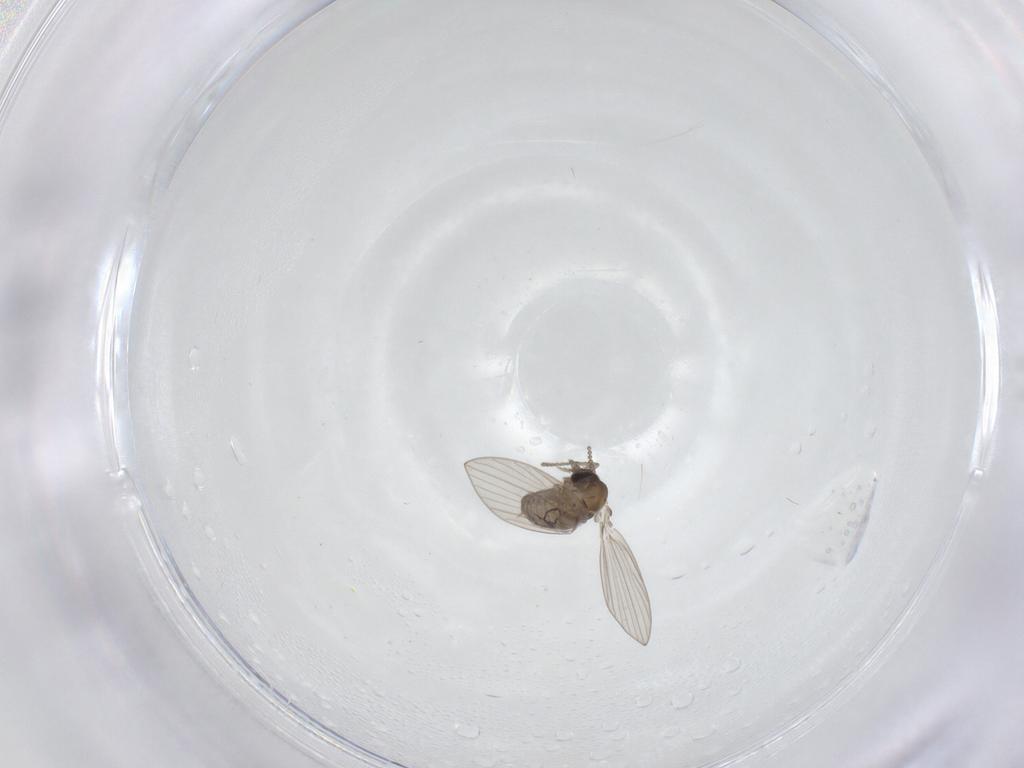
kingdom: Animalia
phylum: Arthropoda
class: Insecta
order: Diptera
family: Psychodidae
